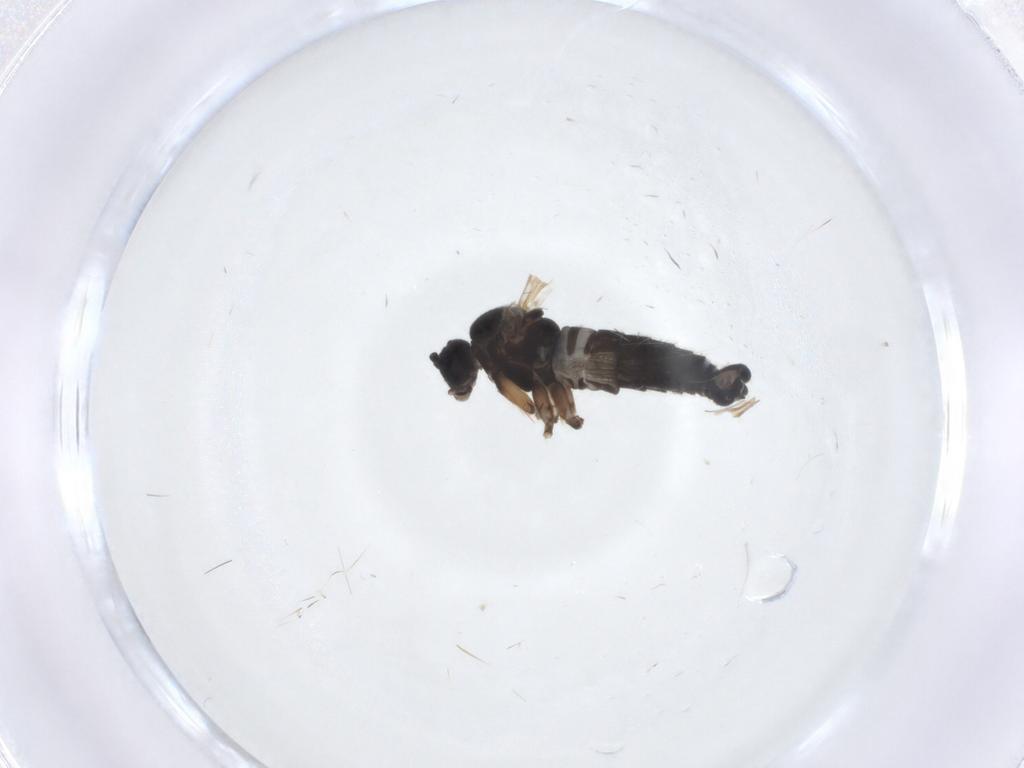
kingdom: Animalia
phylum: Arthropoda
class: Insecta
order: Diptera
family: Sciaridae
